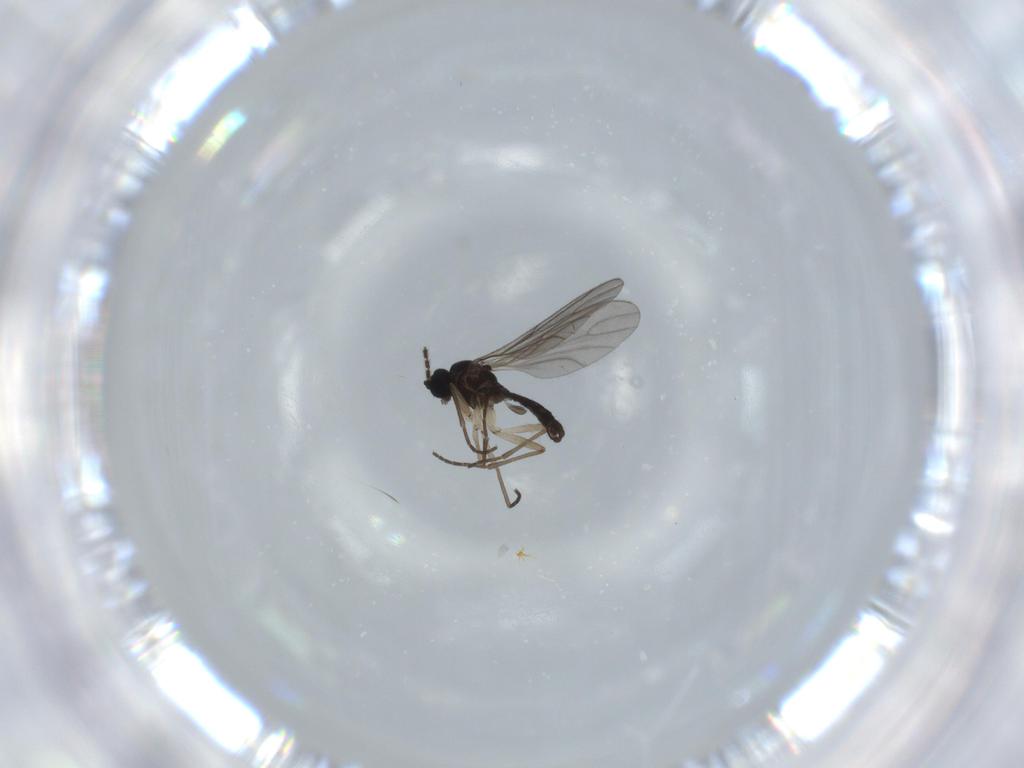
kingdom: Animalia
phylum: Arthropoda
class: Insecta
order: Diptera
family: Sciaridae
